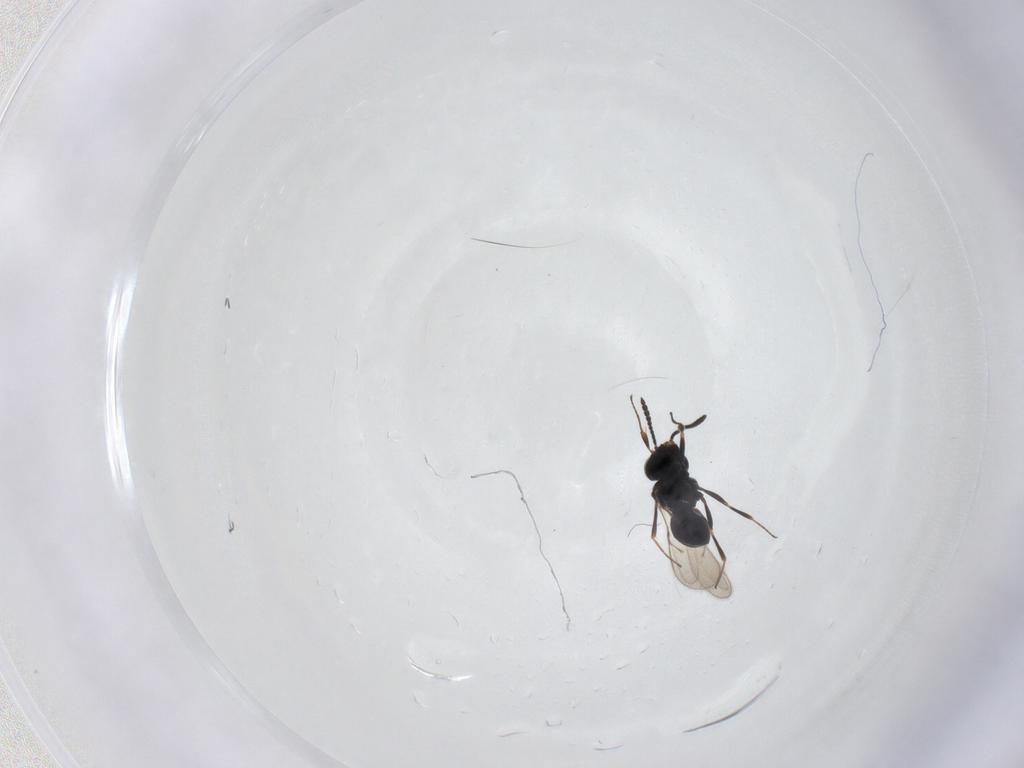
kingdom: Animalia
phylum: Arthropoda
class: Insecta
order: Hymenoptera
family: Scelionidae
